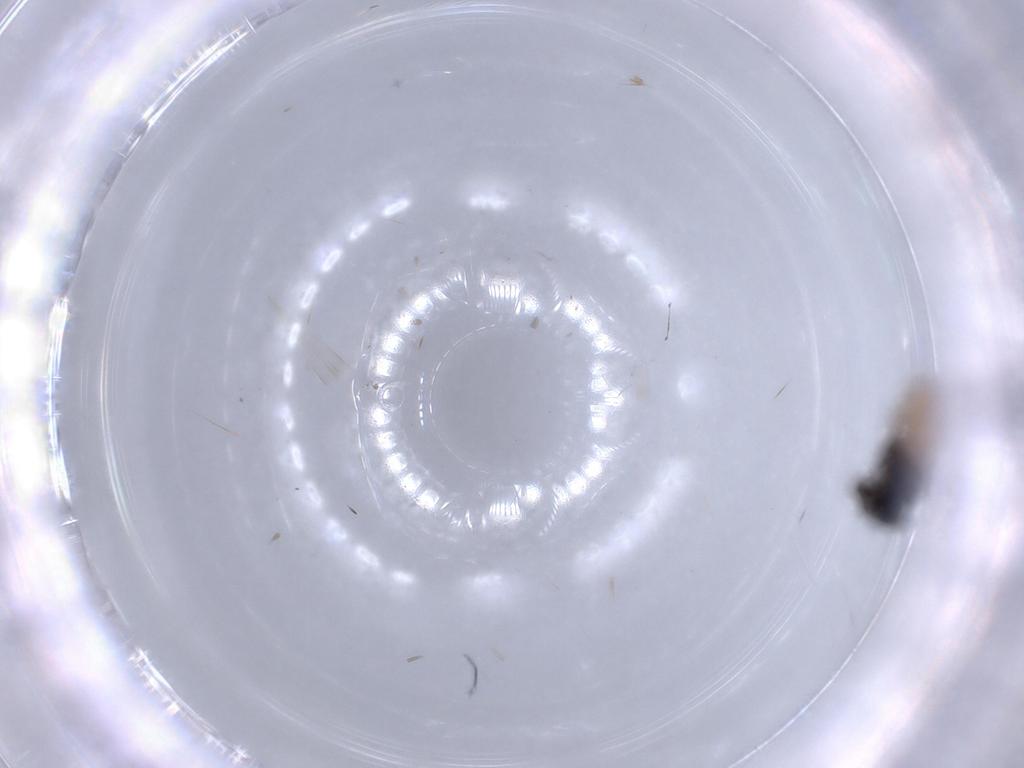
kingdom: Animalia
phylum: Arthropoda
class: Insecta
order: Hymenoptera
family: Scelionidae
